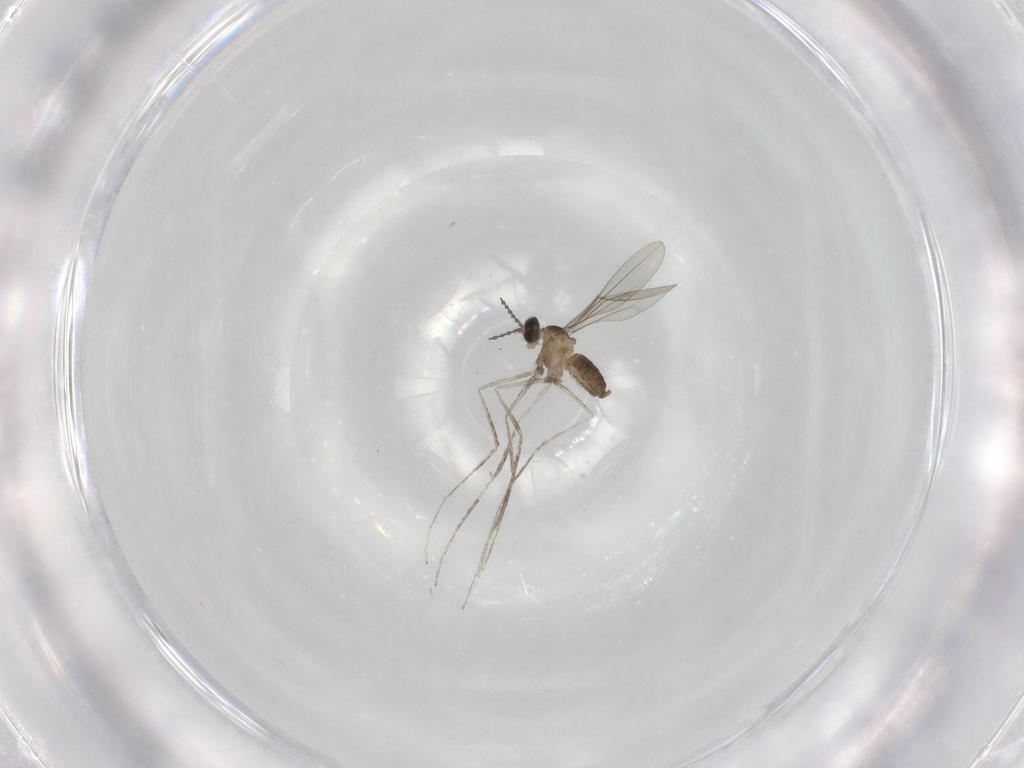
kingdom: Animalia
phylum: Arthropoda
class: Insecta
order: Diptera
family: Cecidomyiidae
